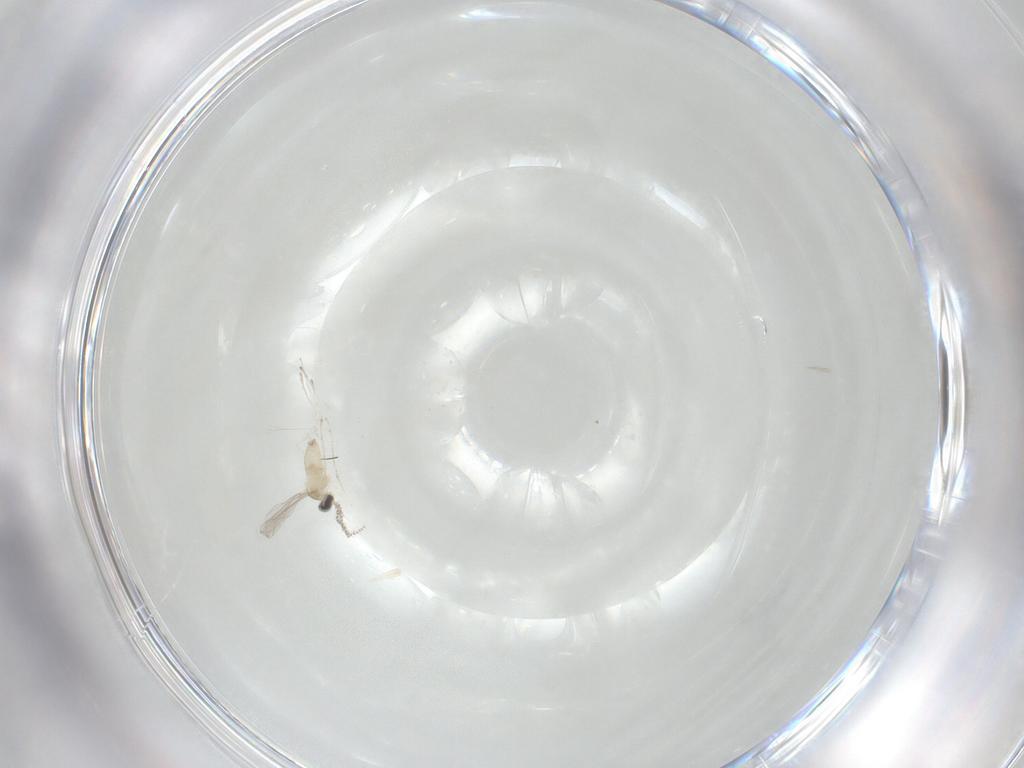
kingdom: Animalia
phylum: Arthropoda
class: Insecta
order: Diptera
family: Cecidomyiidae
